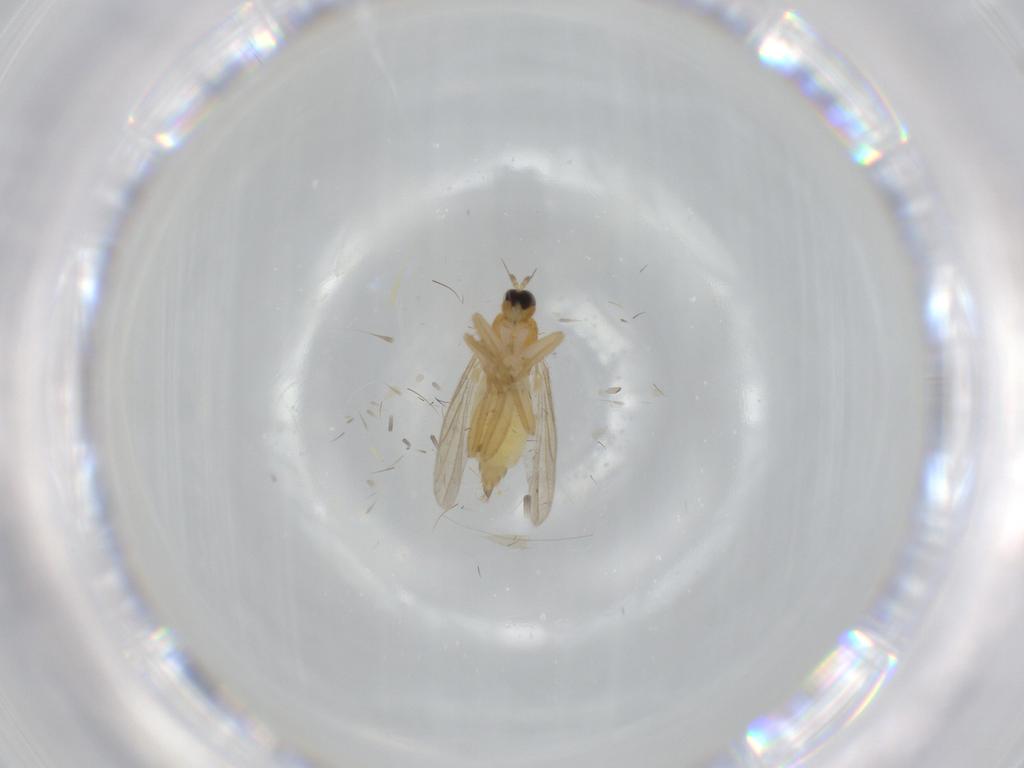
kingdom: Animalia
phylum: Arthropoda
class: Insecta
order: Diptera
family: Hybotidae
